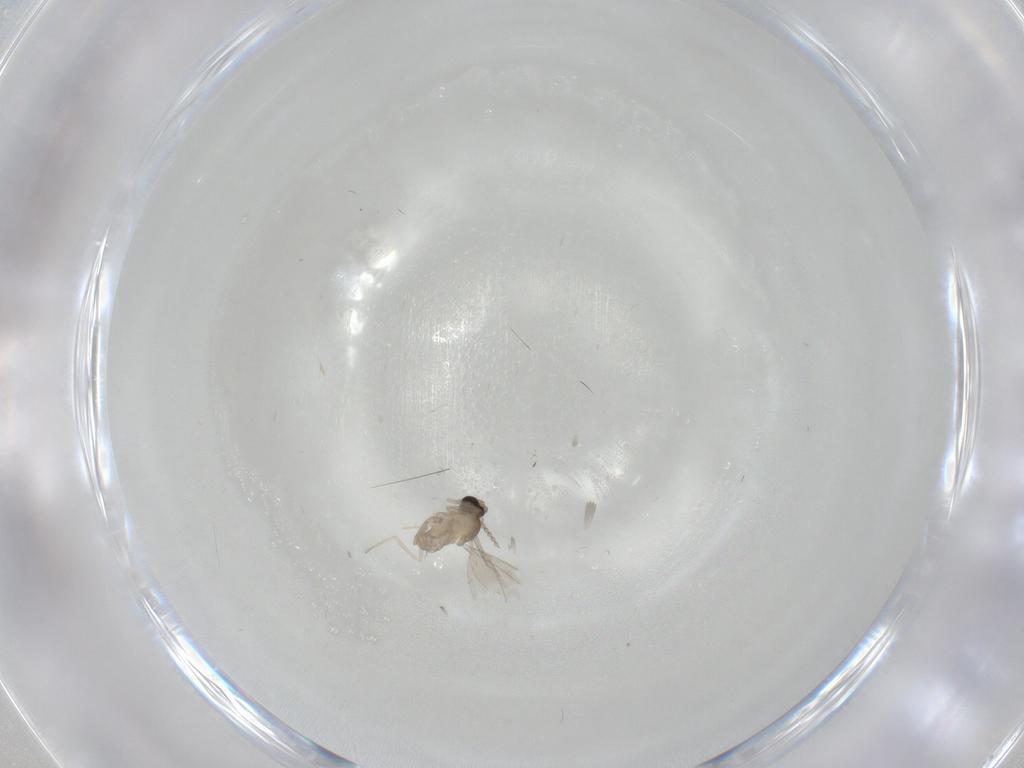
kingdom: Animalia
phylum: Arthropoda
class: Insecta
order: Diptera
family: Cecidomyiidae
